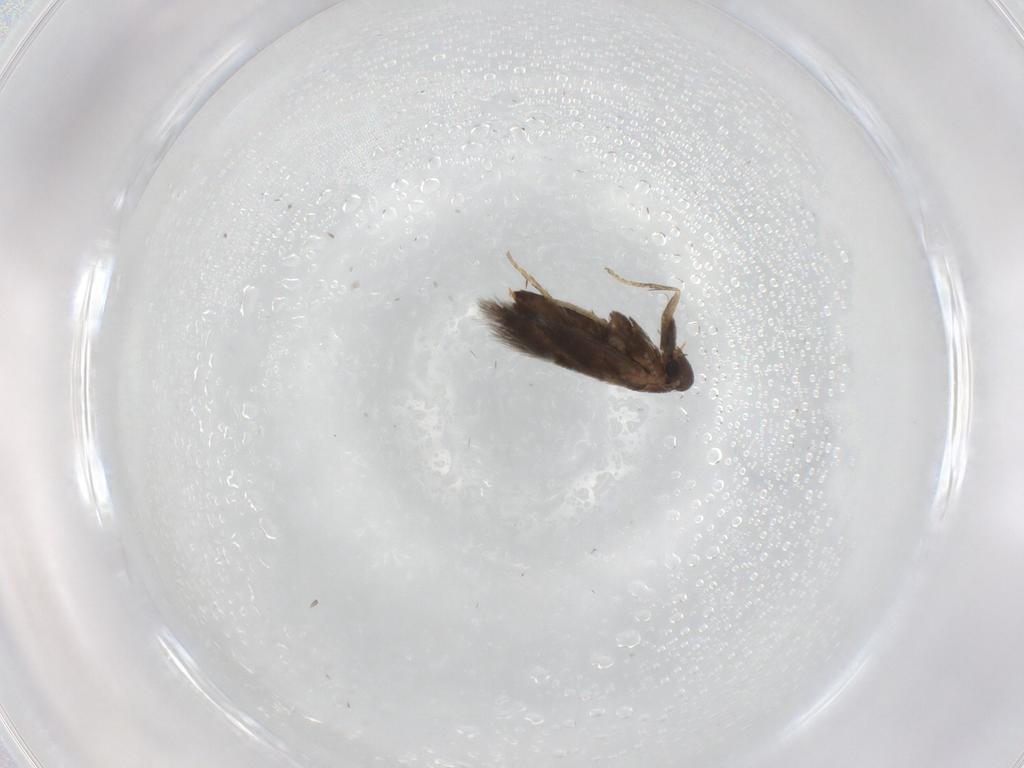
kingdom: Animalia
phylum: Arthropoda
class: Insecta
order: Lepidoptera
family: Heliozelidae
